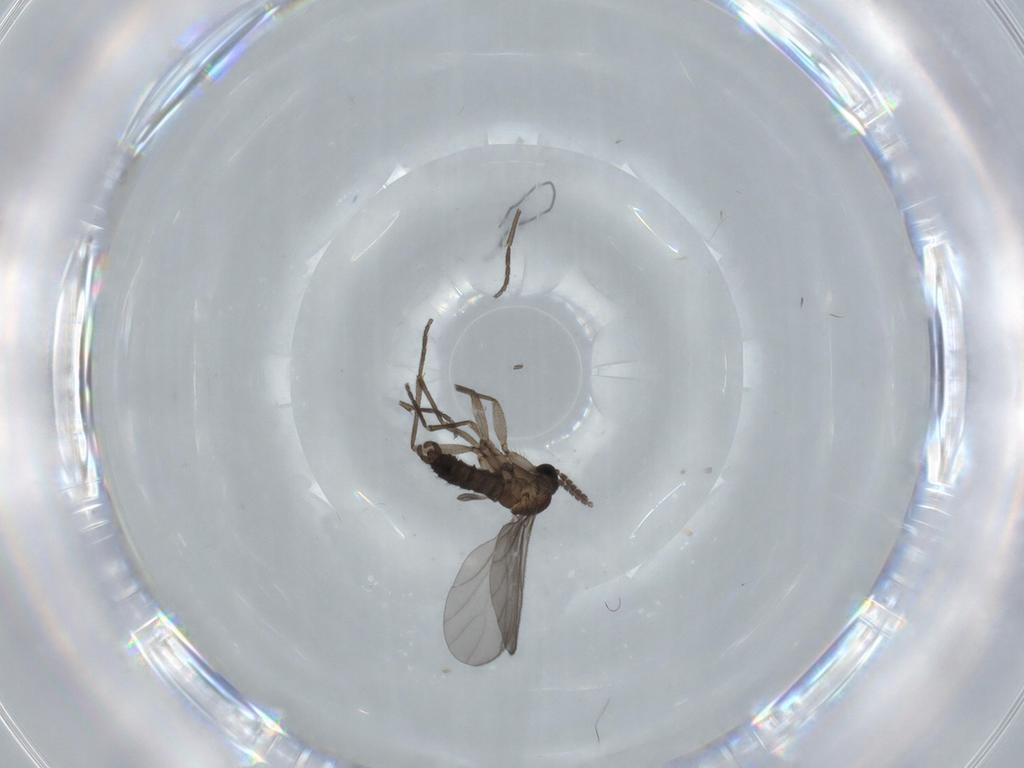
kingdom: Animalia
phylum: Arthropoda
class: Insecta
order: Diptera
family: Sciaridae
